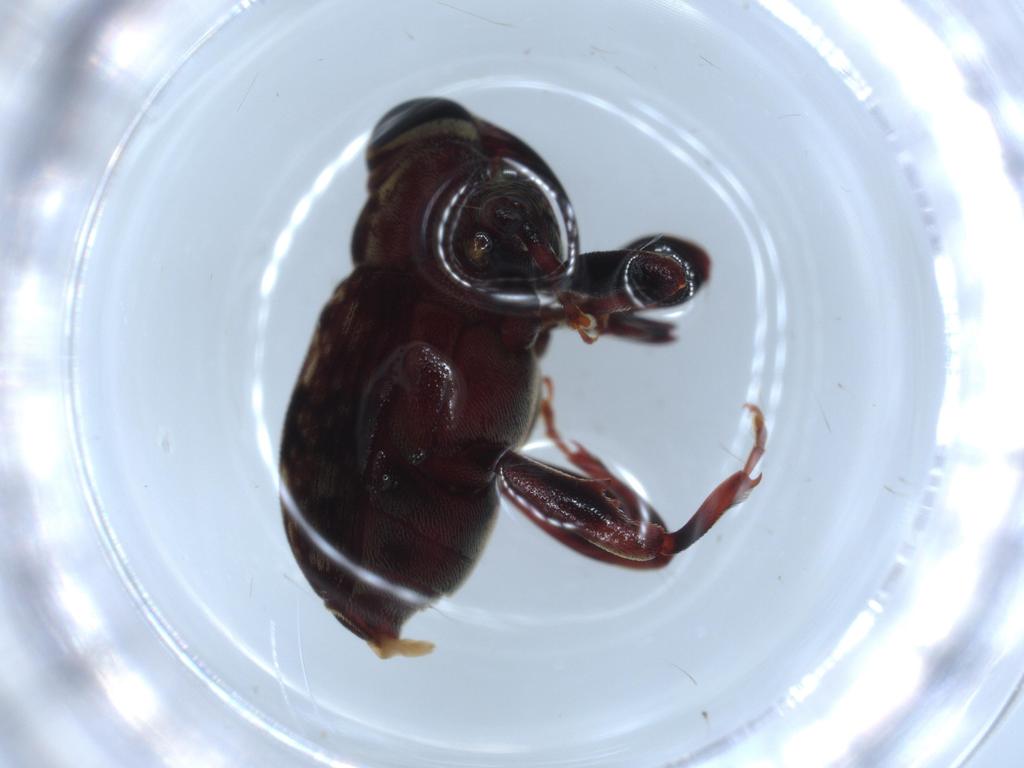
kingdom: Animalia
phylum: Arthropoda
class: Insecta
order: Coleoptera
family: Curculionidae
